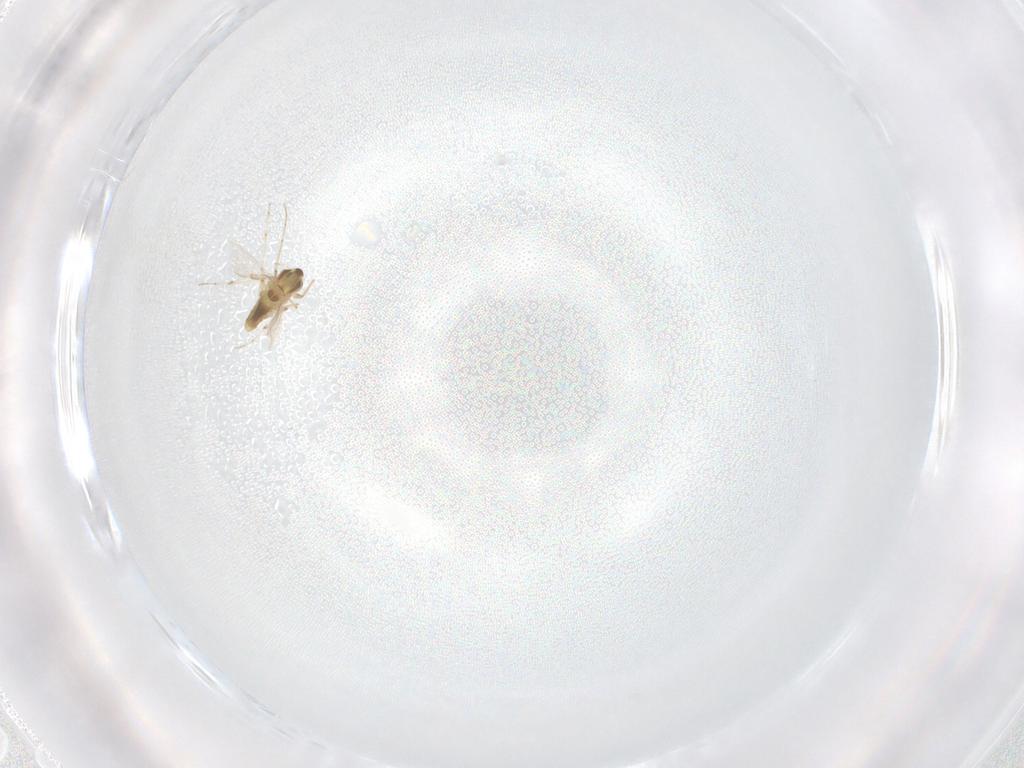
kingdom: Animalia
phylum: Arthropoda
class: Insecta
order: Diptera
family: Chironomidae
